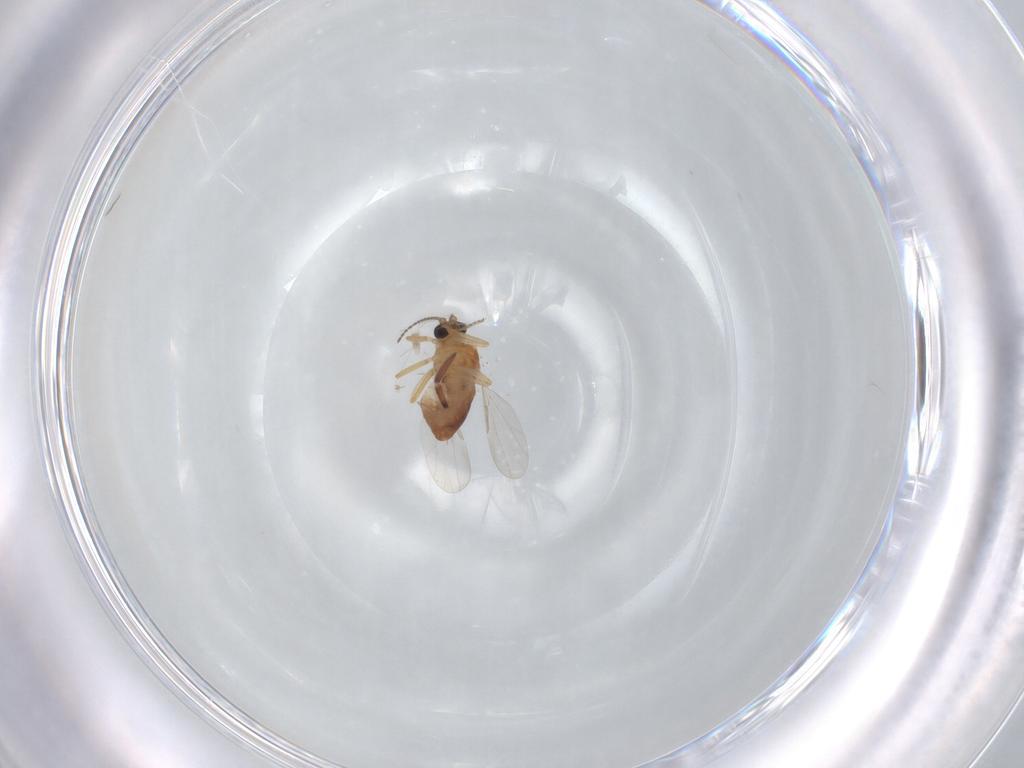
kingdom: Animalia
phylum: Arthropoda
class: Insecta
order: Diptera
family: Ceratopogonidae
